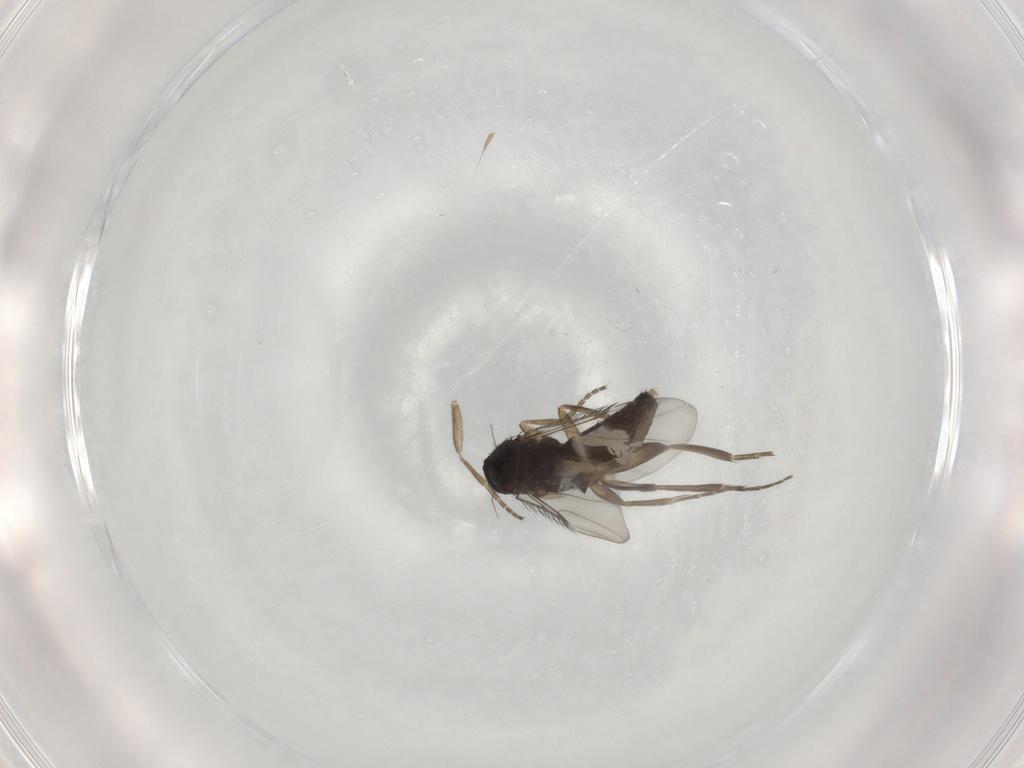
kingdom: Animalia
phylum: Arthropoda
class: Insecta
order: Diptera
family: Phoridae
